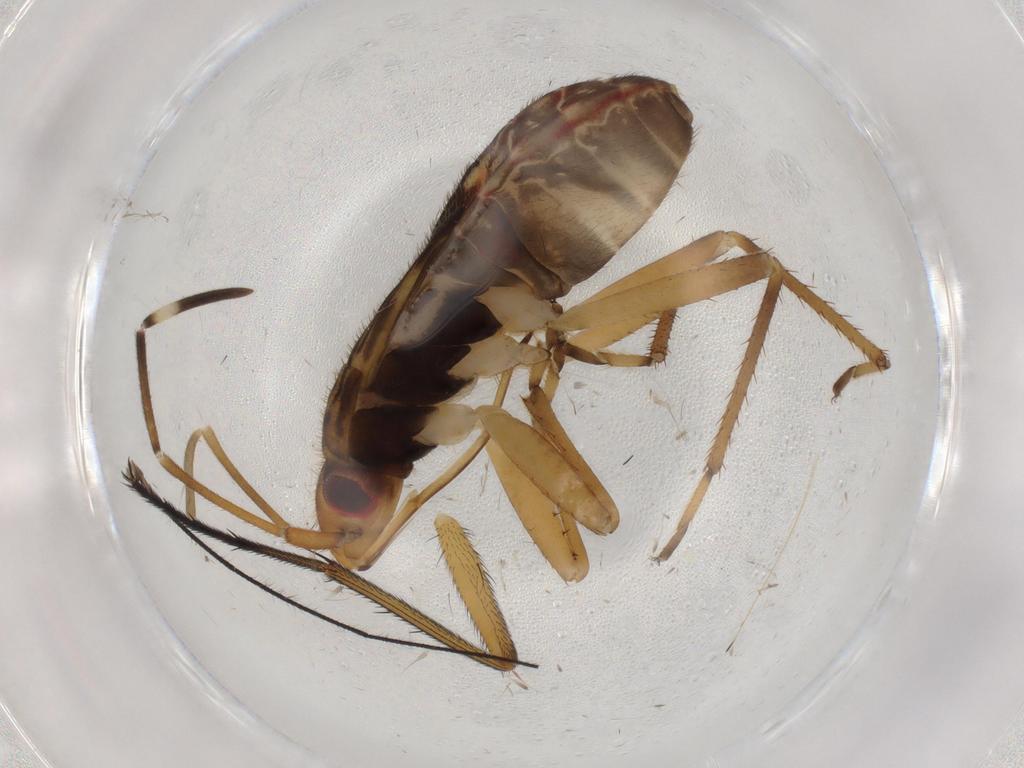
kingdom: Animalia
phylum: Arthropoda
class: Insecta
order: Hemiptera
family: Rhyparochromidae
